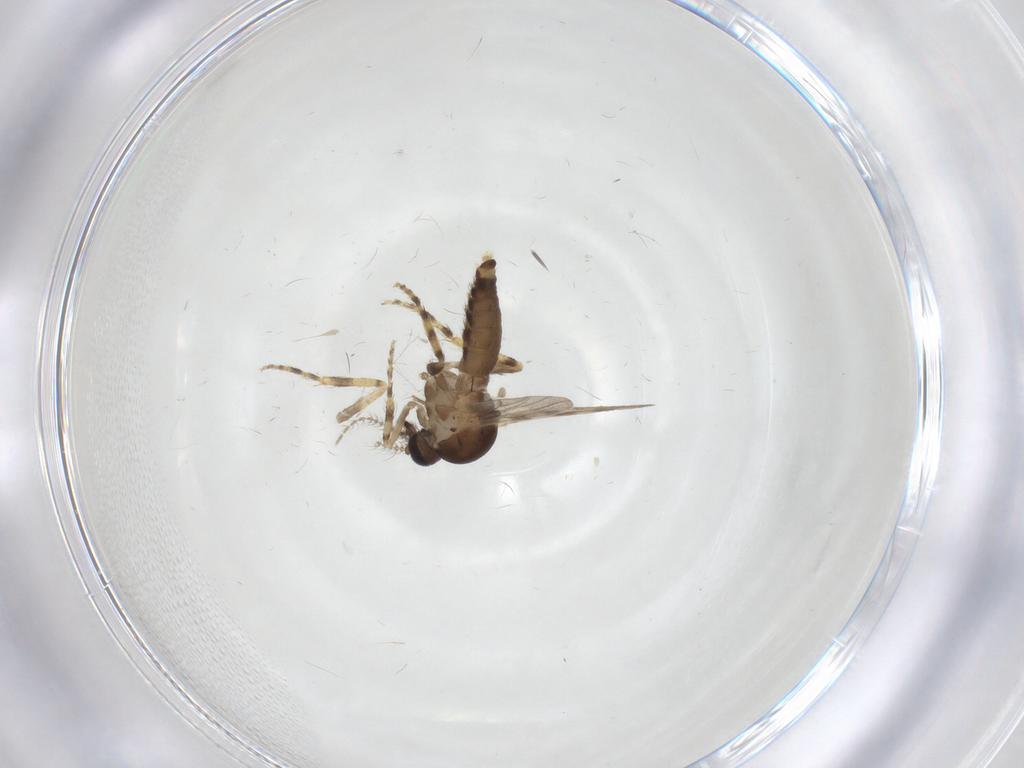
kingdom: Animalia
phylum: Arthropoda
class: Insecta
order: Diptera
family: Ceratopogonidae
